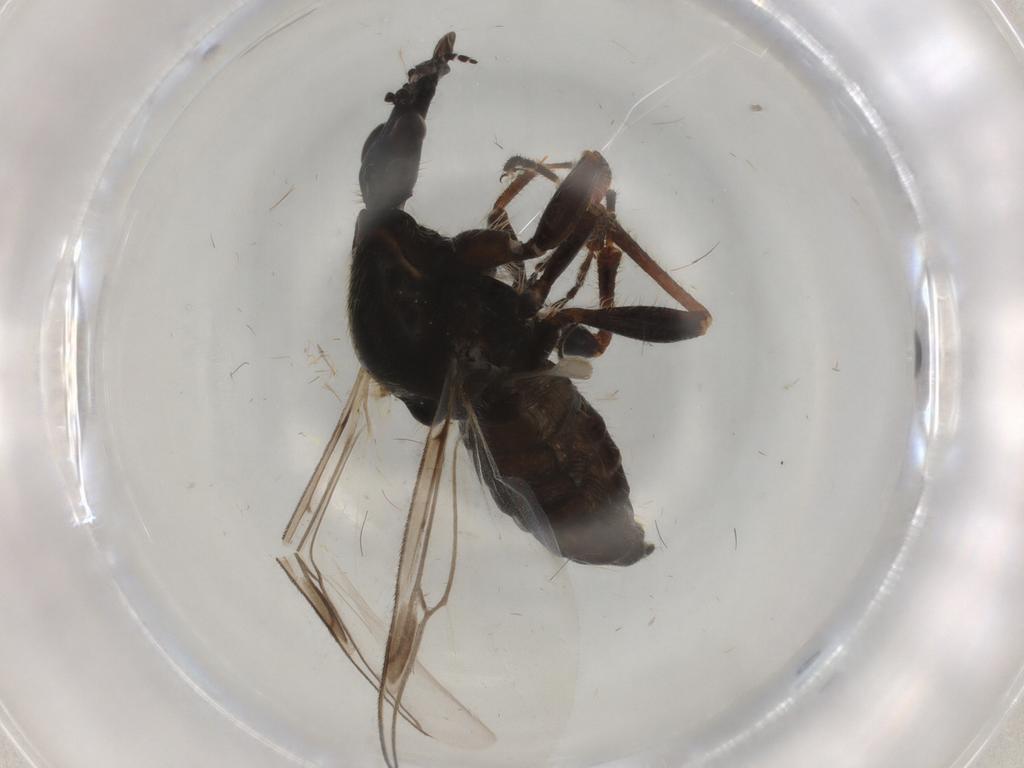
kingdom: Animalia
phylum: Arthropoda
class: Insecta
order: Diptera
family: Bibionidae
